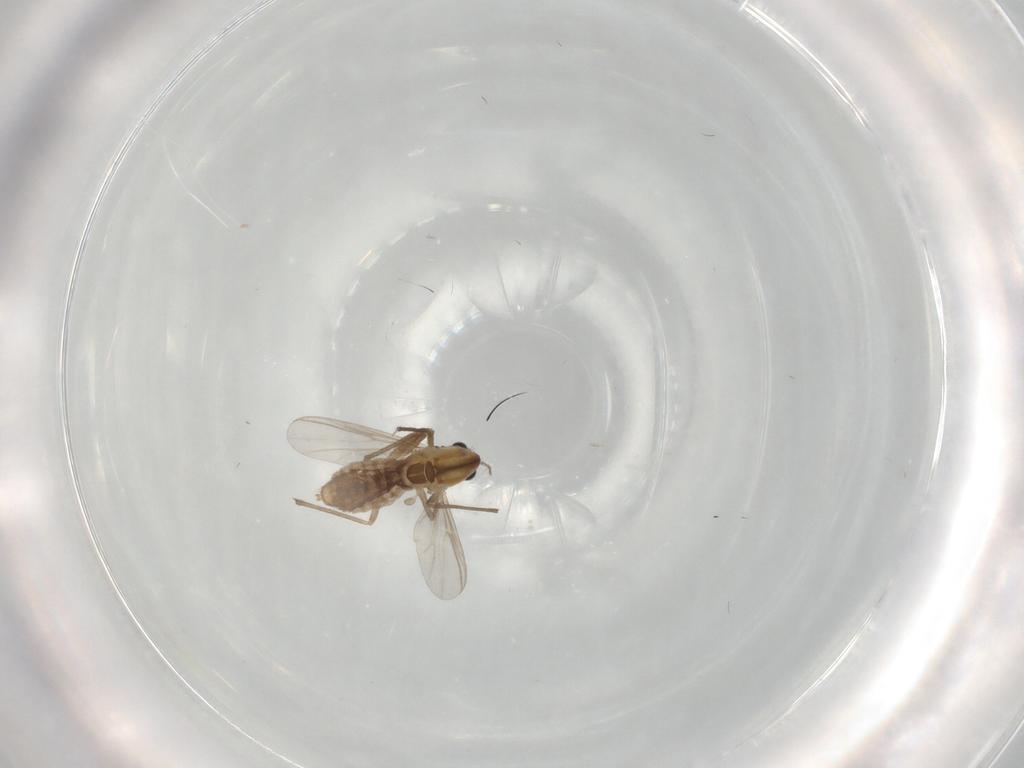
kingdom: Animalia
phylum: Arthropoda
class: Insecta
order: Diptera
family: Chironomidae
